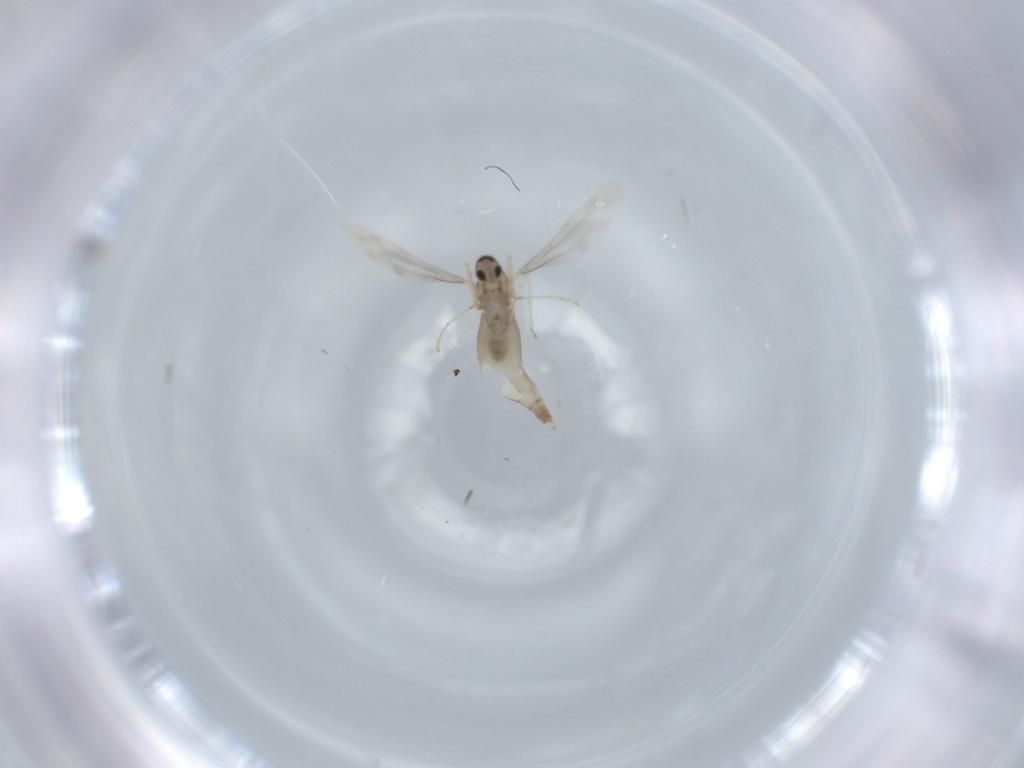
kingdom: Animalia
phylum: Arthropoda
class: Insecta
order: Diptera
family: Cecidomyiidae
